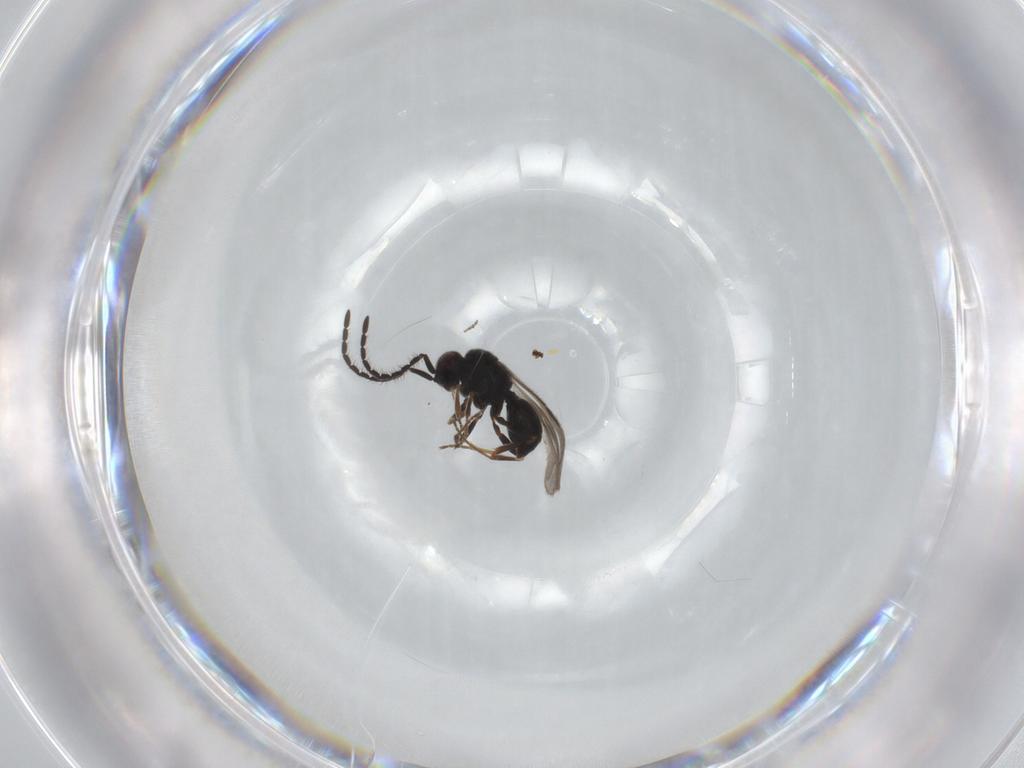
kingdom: Animalia
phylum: Arthropoda
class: Insecta
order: Hymenoptera
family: Megaspilidae
